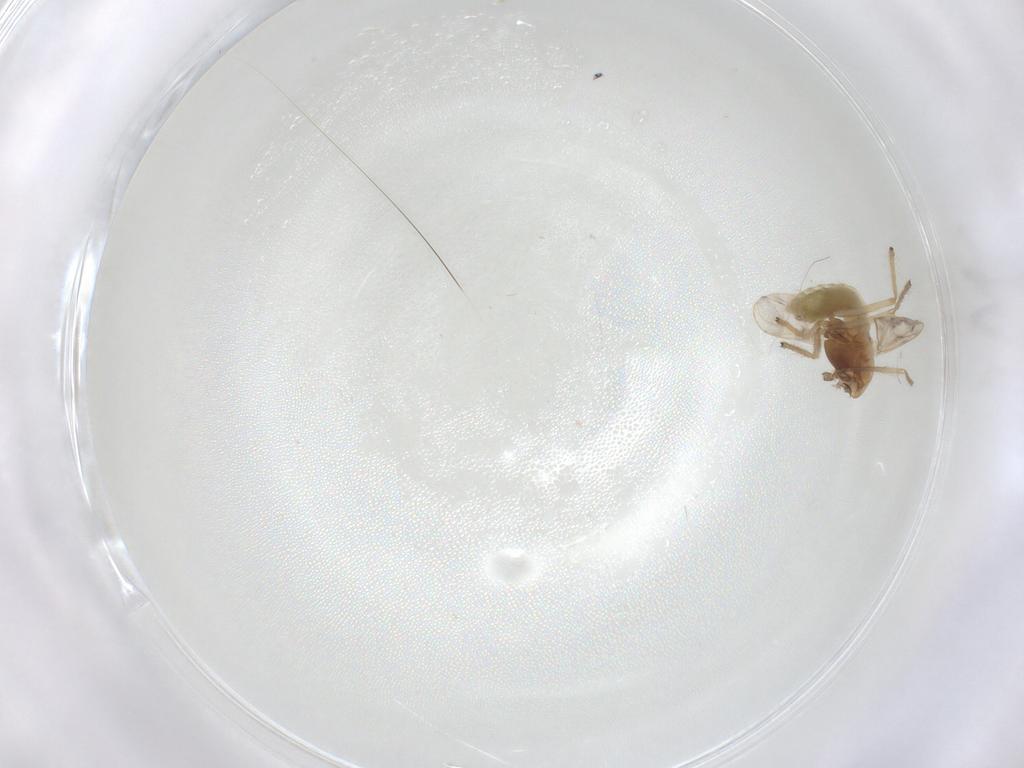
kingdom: Animalia
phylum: Arthropoda
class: Insecta
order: Diptera
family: Chironomidae
